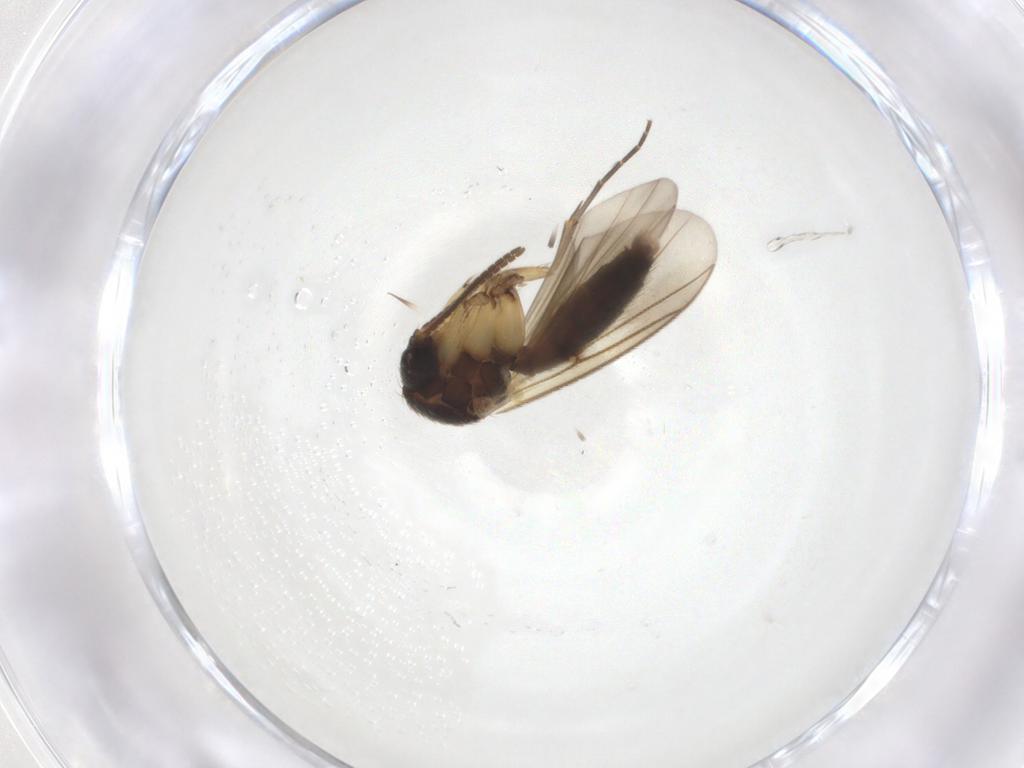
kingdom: Animalia
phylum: Arthropoda
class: Insecta
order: Diptera
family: Mycetophilidae
